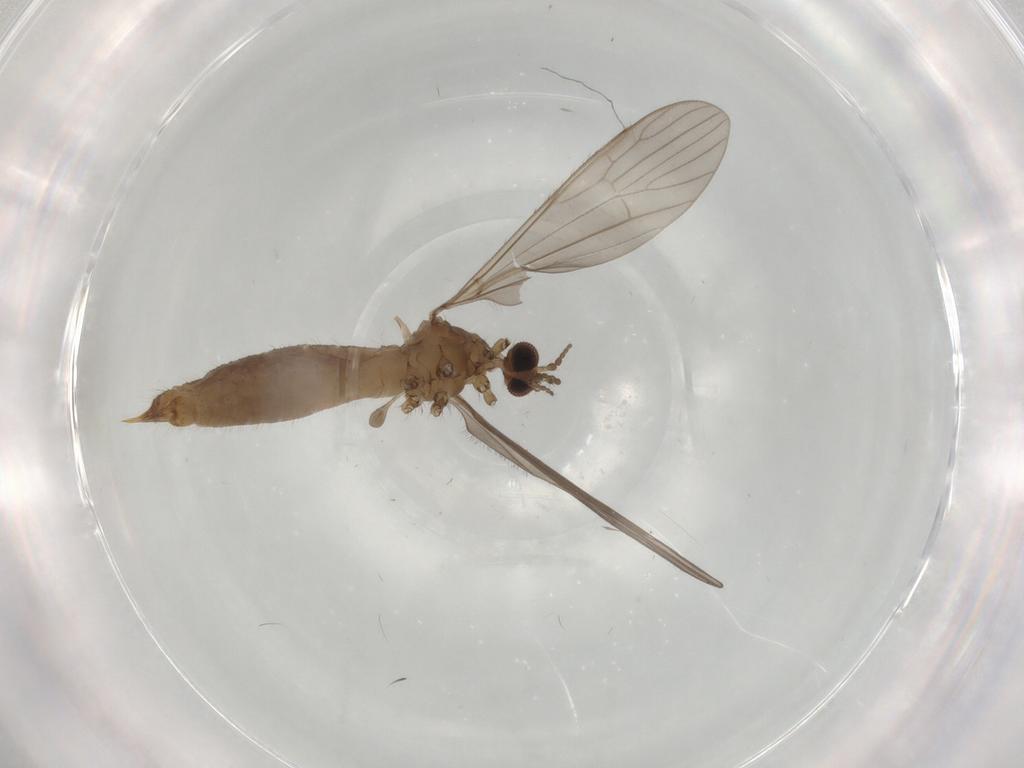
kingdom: Animalia
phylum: Arthropoda
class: Insecta
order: Diptera
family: Limoniidae
